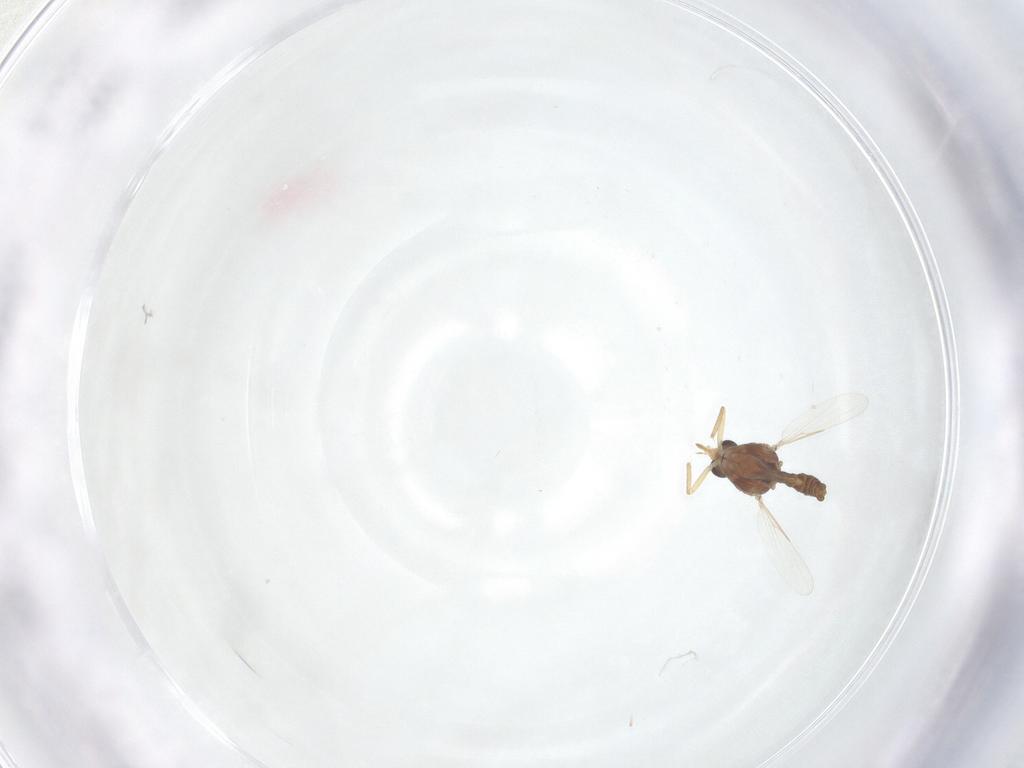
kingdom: Animalia
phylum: Arthropoda
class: Insecta
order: Diptera
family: Cecidomyiidae
